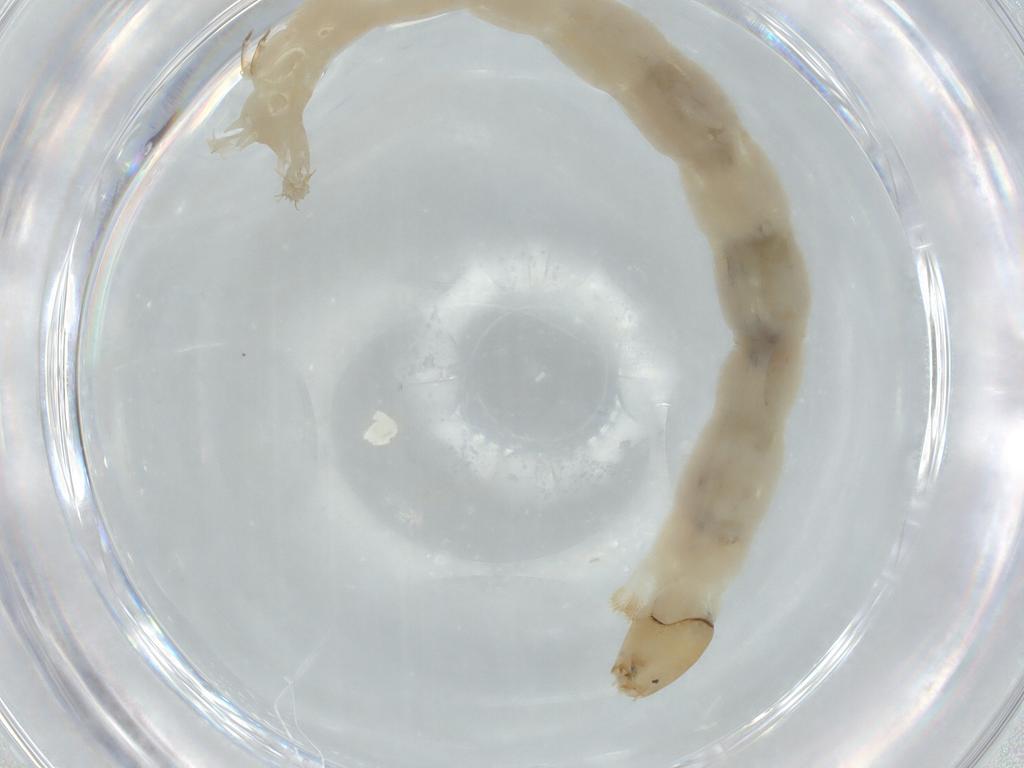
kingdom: Animalia
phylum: Arthropoda
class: Insecta
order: Diptera
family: Chironomidae
